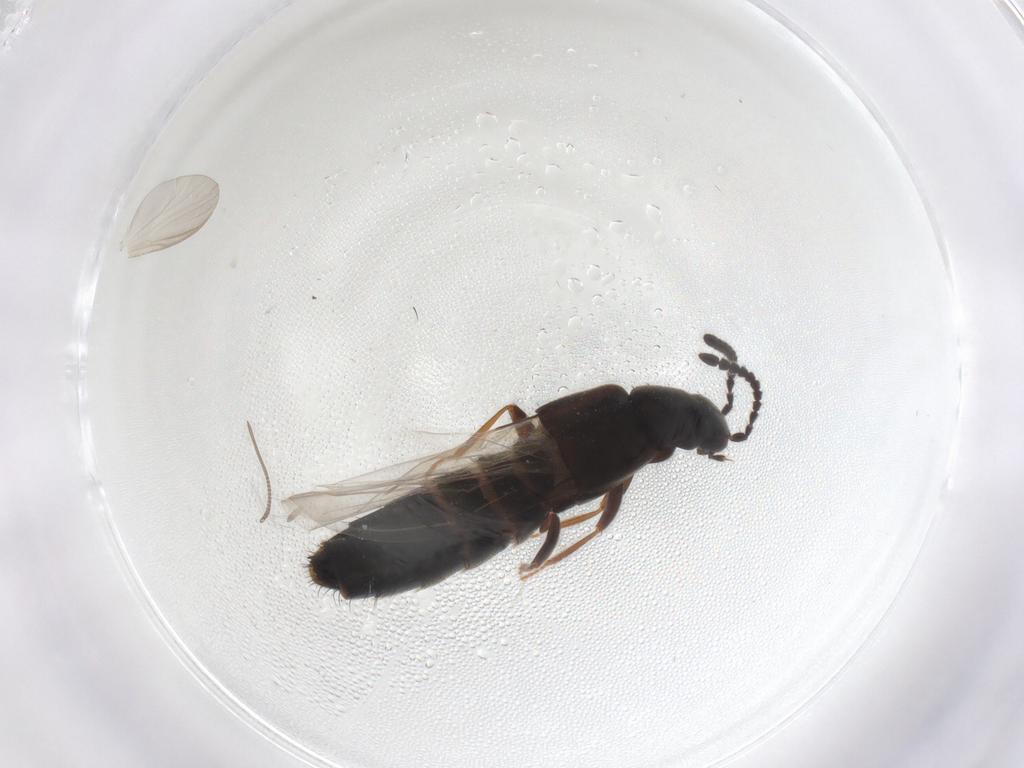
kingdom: Animalia
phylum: Arthropoda
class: Insecta
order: Coleoptera
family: Staphylinidae
